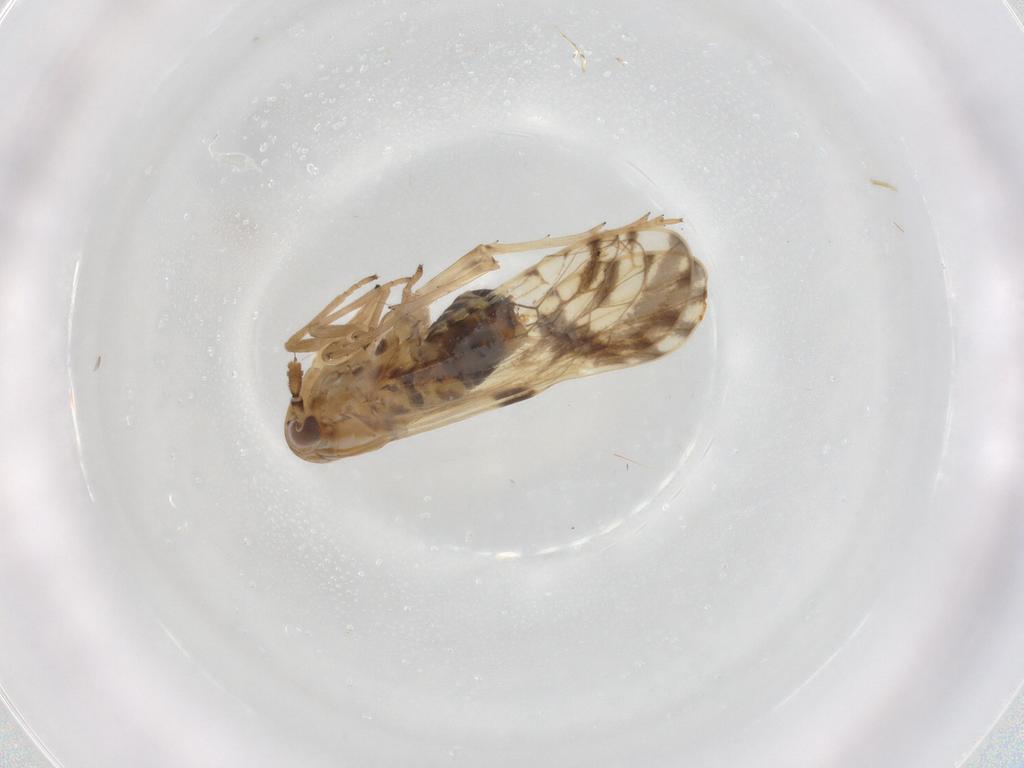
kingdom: Animalia
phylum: Arthropoda
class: Insecta
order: Hemiptera
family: Delphacidae
